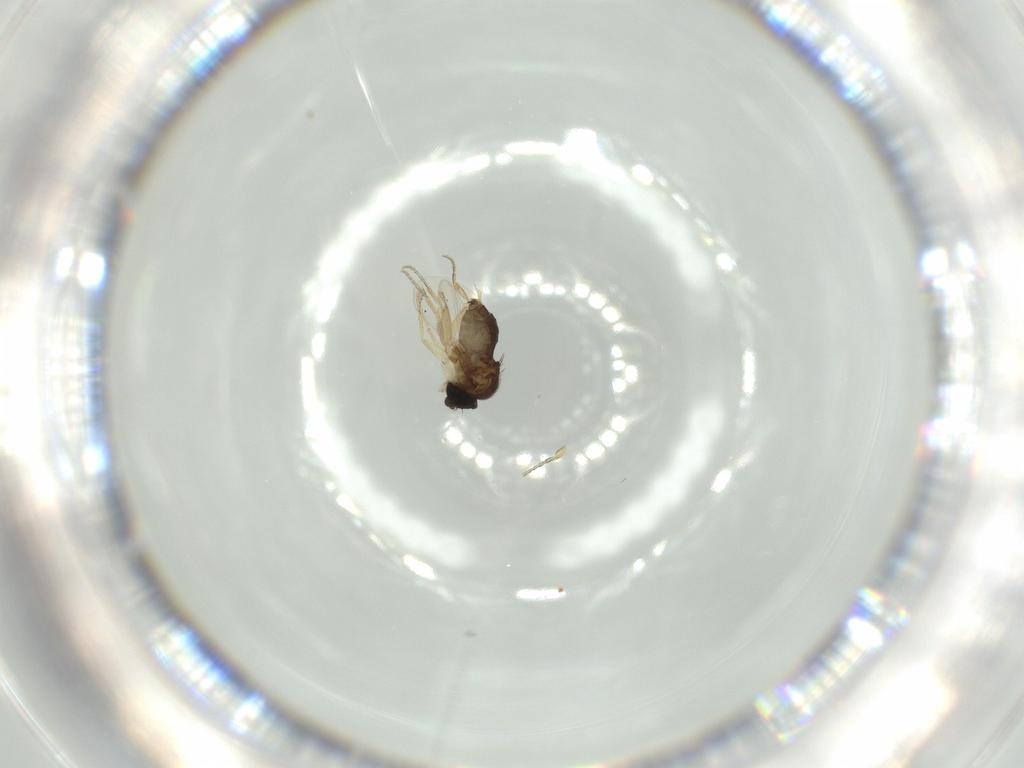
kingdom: Animalia
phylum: Arthropoda
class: Insecta
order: Diptera
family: Phoridae
